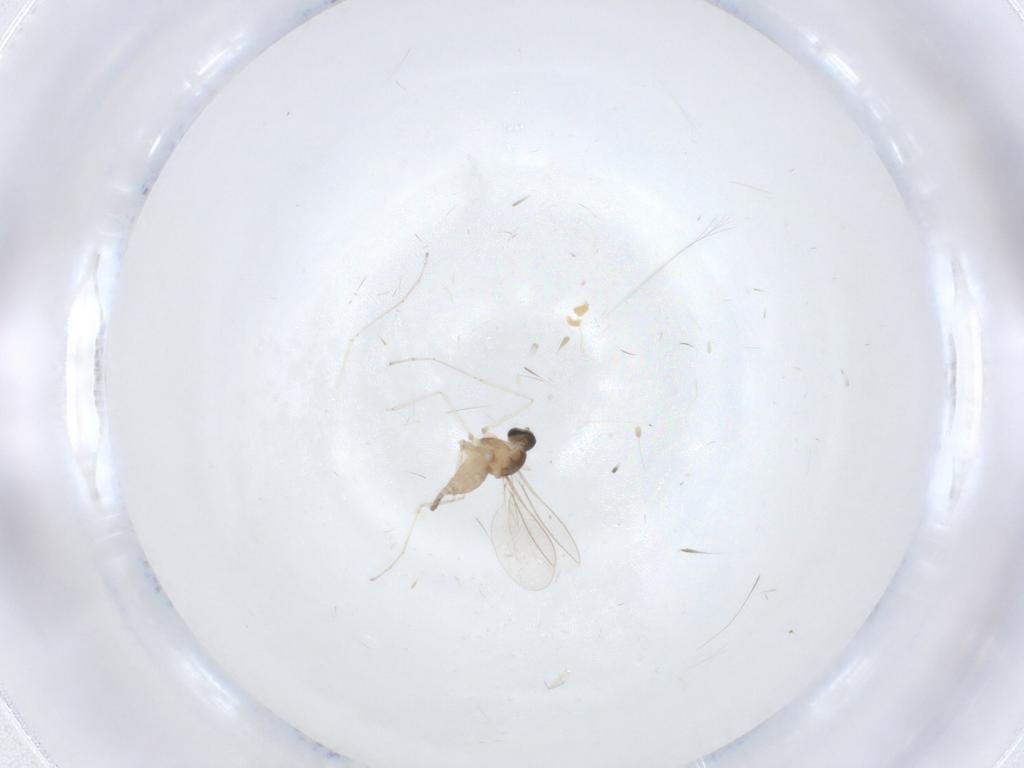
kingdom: Animalia
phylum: Arthropoda
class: Insecta
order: Diptera
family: Cecidomyiidae
